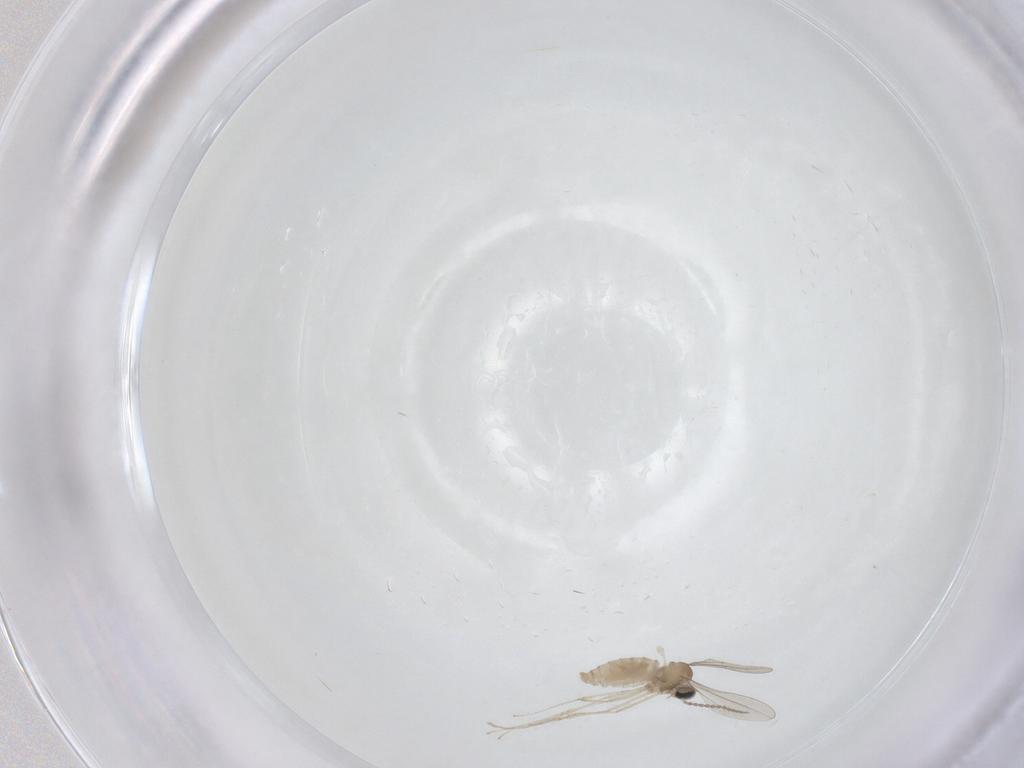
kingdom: Animalia
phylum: Arthropoda
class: Insecta
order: Diptera
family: Cecidomyiidae
